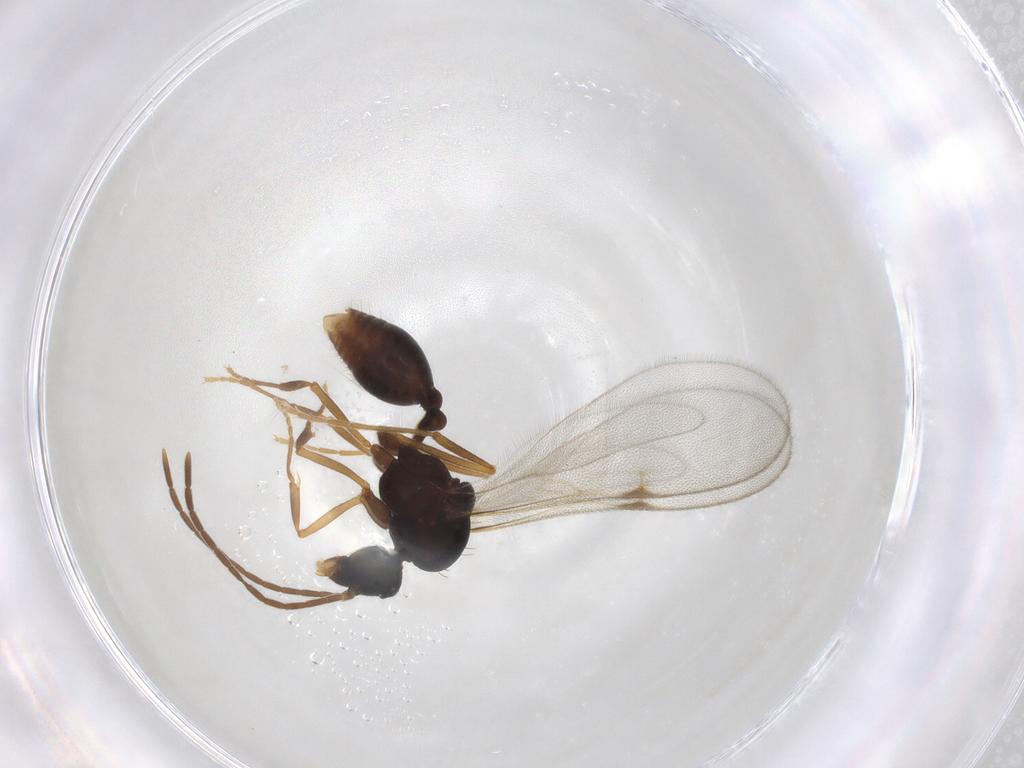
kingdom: Animalia
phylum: Arthropoda
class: Insecta
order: Hymenoptera
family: Formicidae
